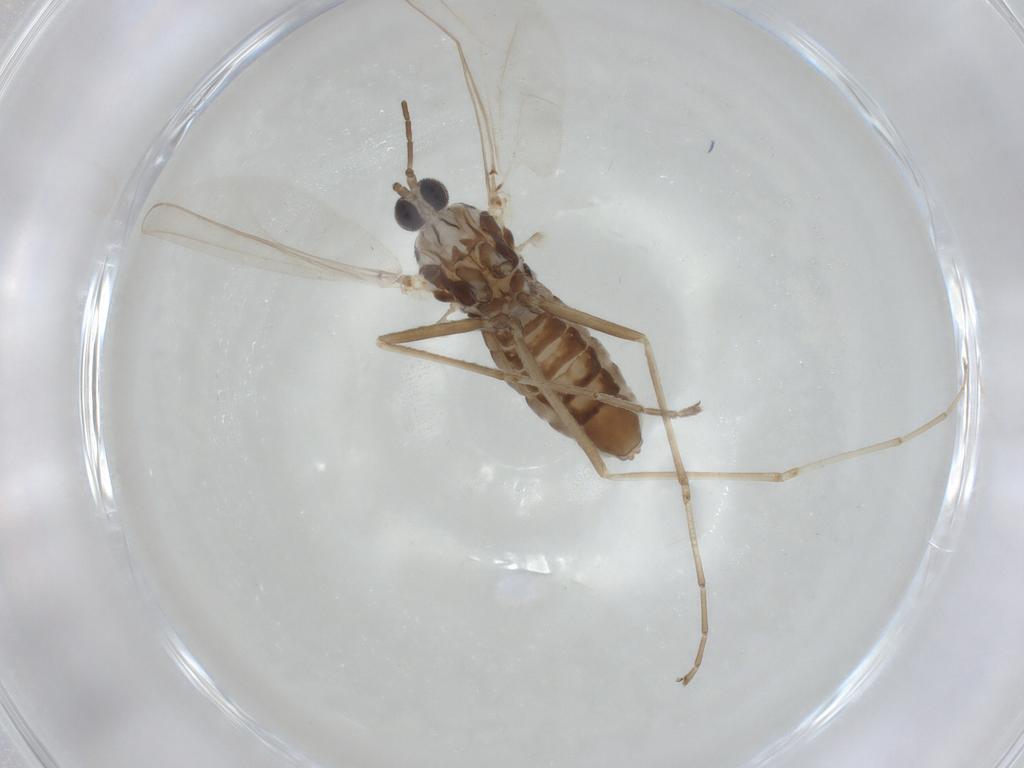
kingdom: Animalia
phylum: Arthropoda
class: Insecta
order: Diptera
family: Cecidomyiidae
